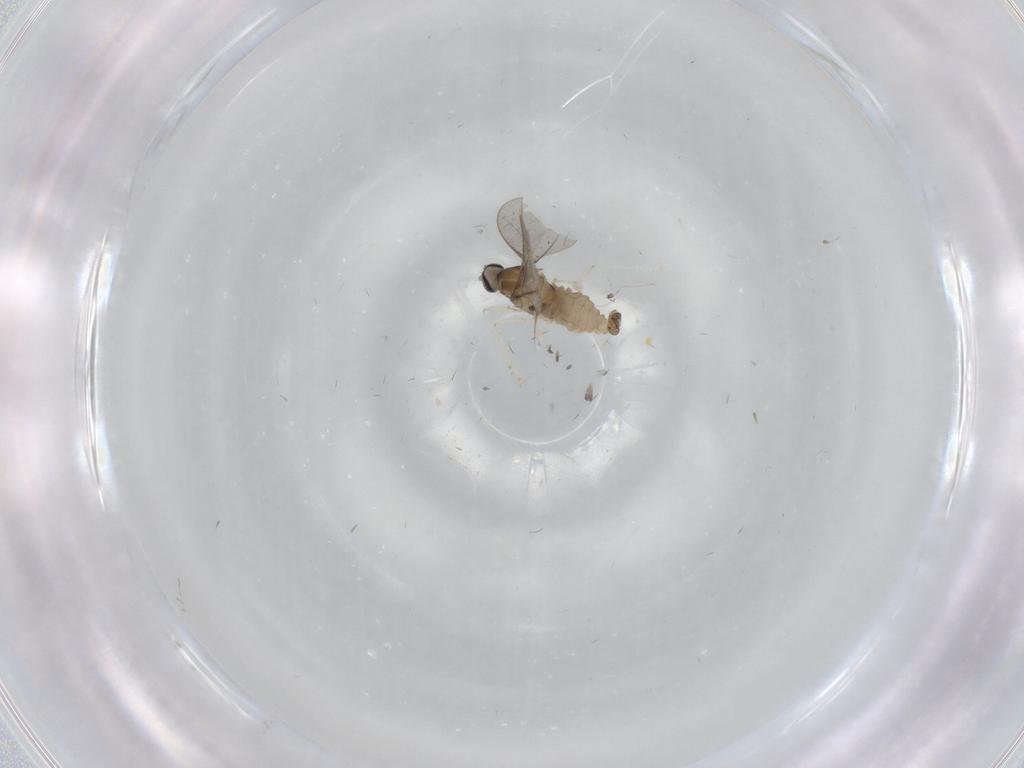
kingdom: Animalia
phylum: Arthropoda
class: Insecta
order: Diptera
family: Cecidomyiidae
